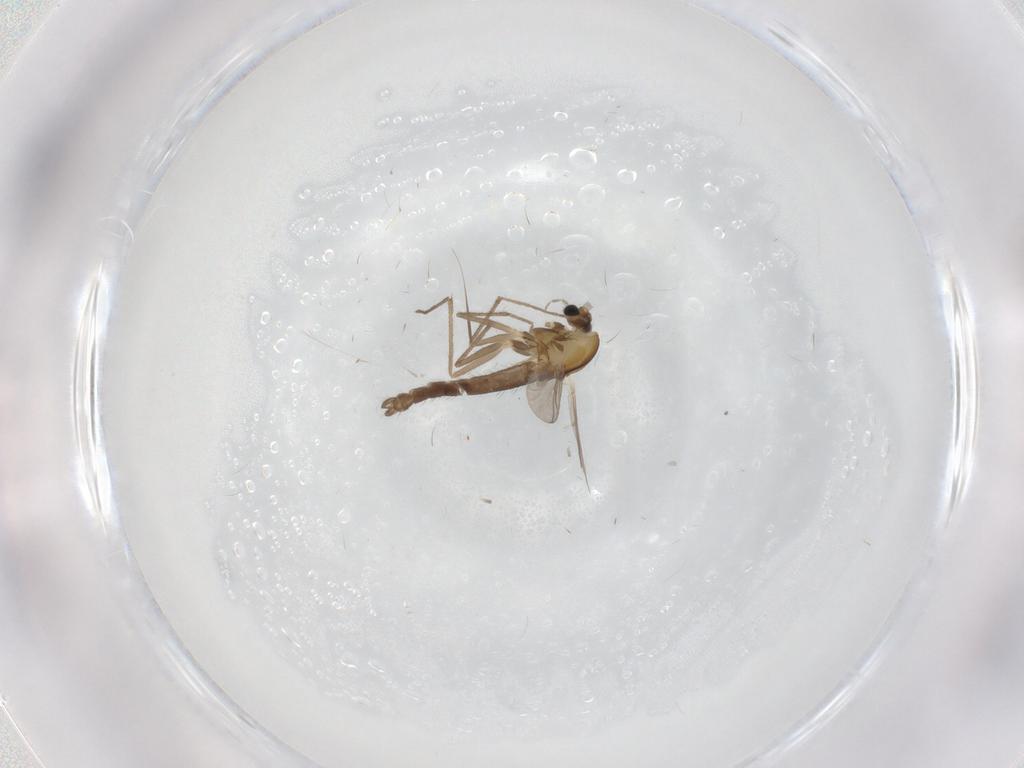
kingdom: Animalia
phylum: Arthropoda
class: Insecta
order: Diptera
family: Chironomidae
